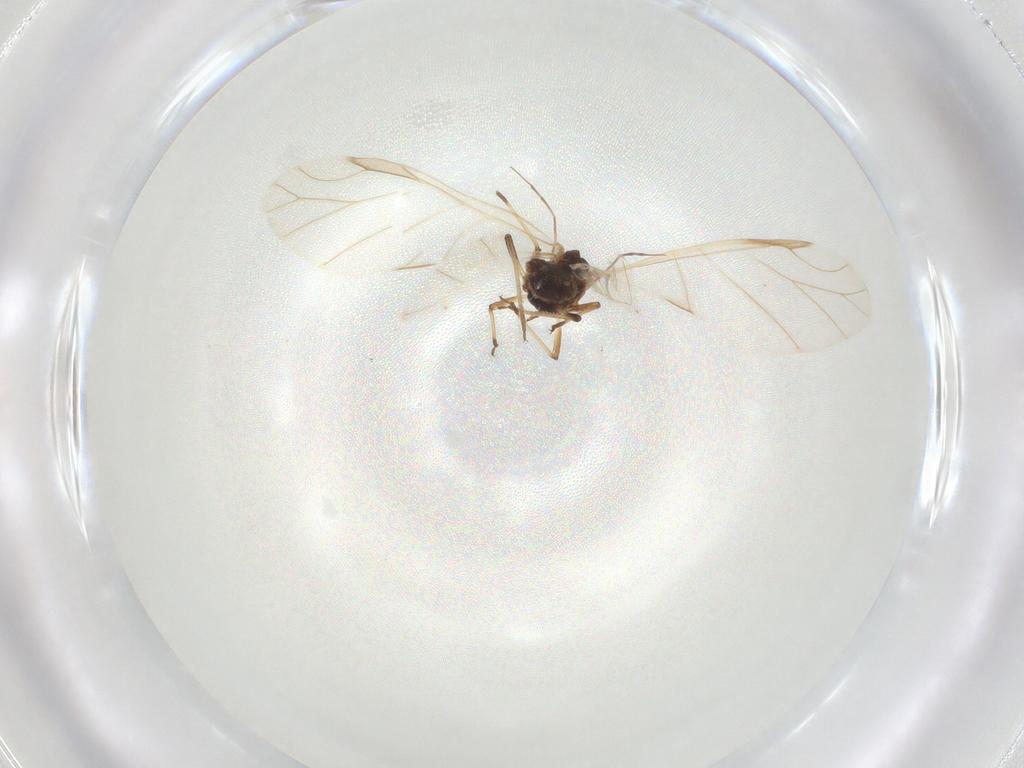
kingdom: Animalia
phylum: Arthropoda
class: Insecta
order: Hemiptera
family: Aphididae
